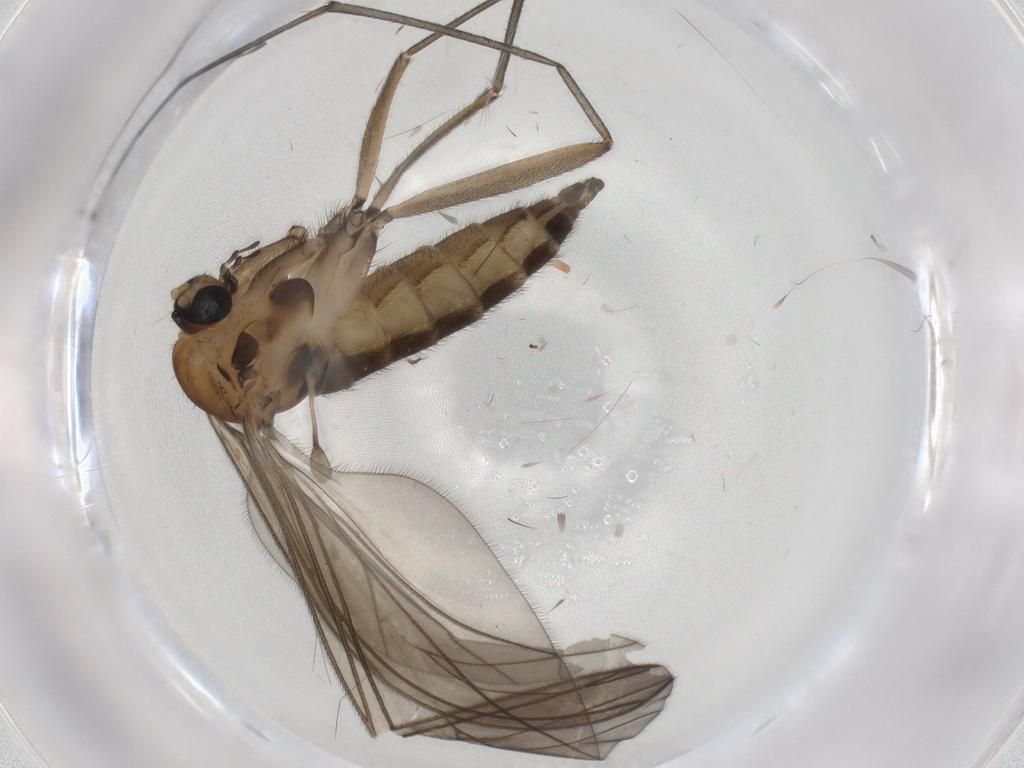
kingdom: Animalia
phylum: Arthropoda
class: Insecta
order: Diptera
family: Sciaridae
